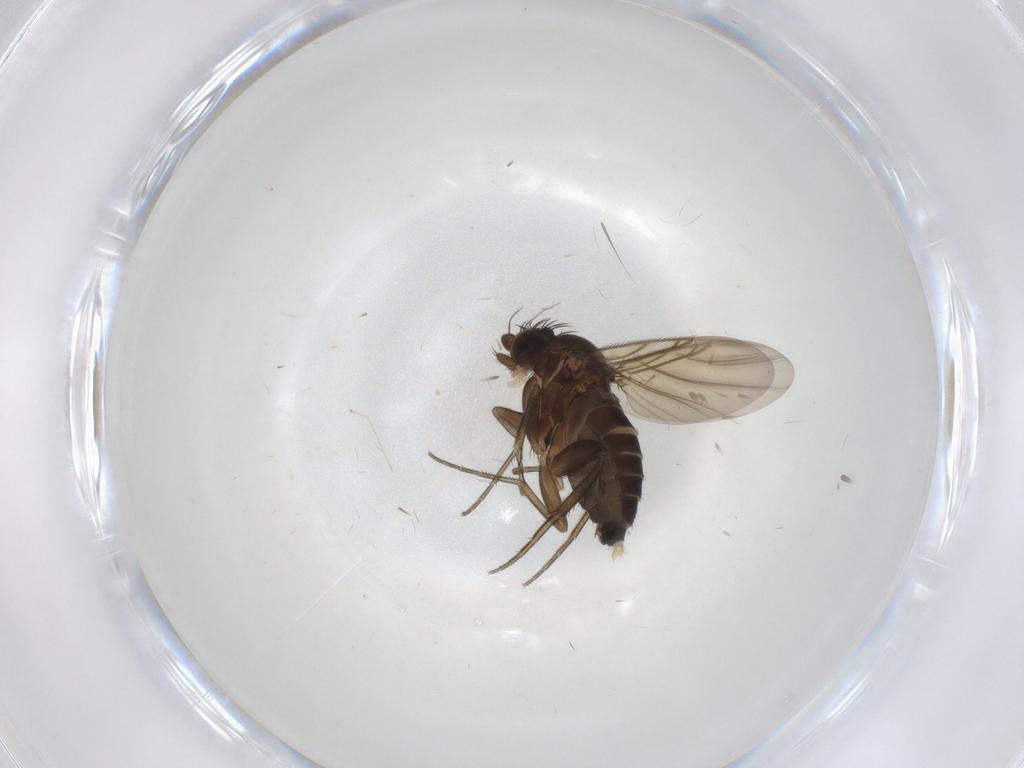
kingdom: Animalia
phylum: Arthropoda
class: Insecta
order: Diptera
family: Phoridae
